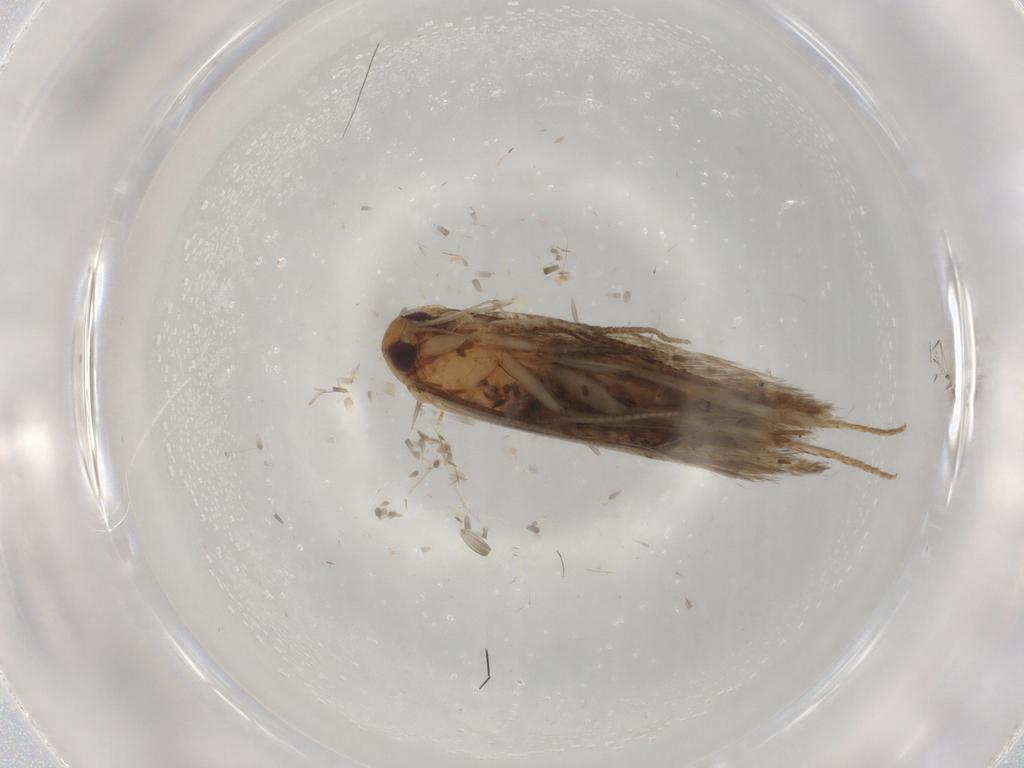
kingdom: Animalia
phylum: Arthropoda
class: Insecta
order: Lepidoptera
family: Cosmopterigidae
